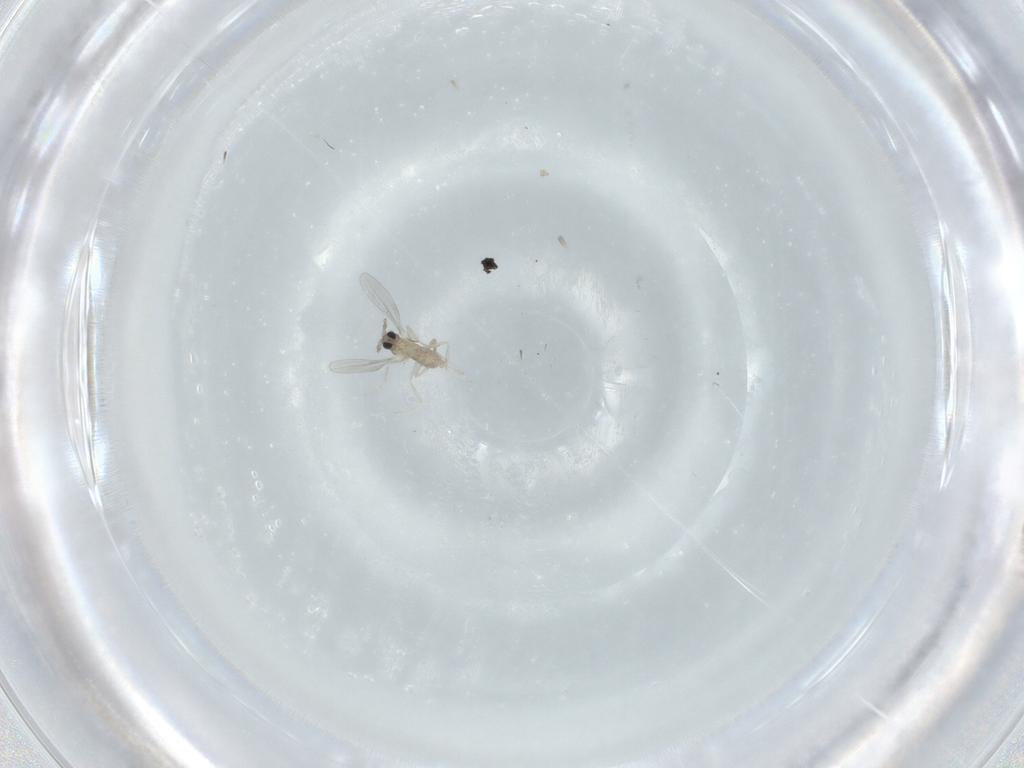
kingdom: Animalia
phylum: Arthropoda
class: Insecta
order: Diptera
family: Cecidomyiidae
